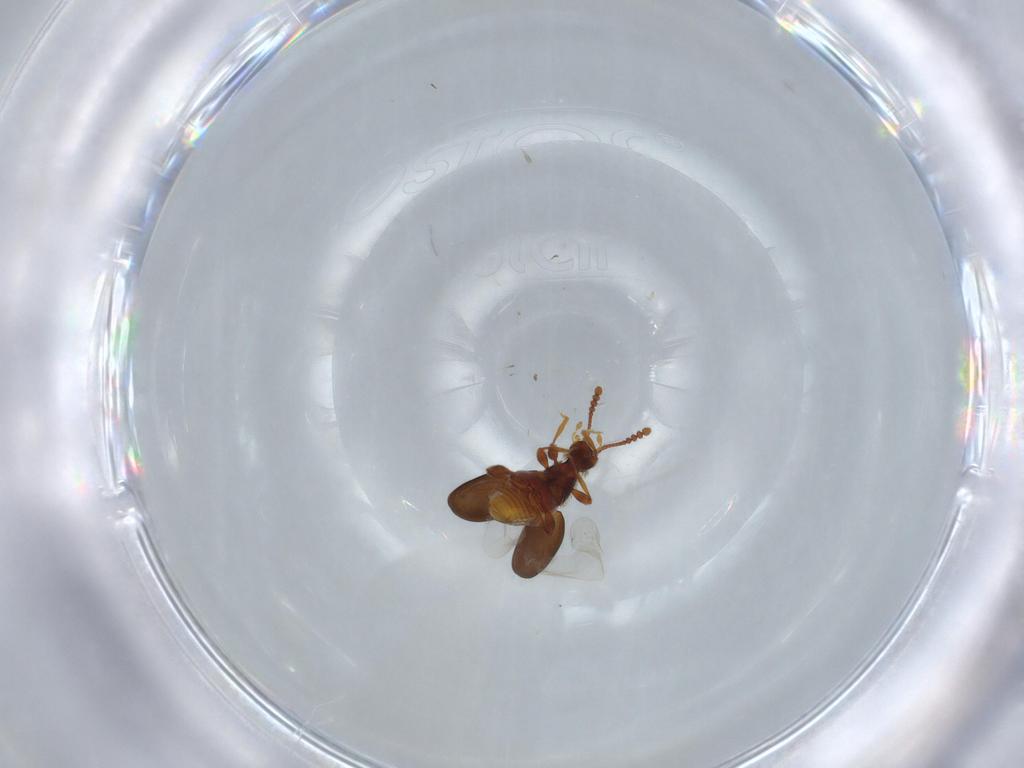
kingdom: Animalia
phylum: Arthropoda
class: Insecta
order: Coleoptera
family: Staphylinidae
